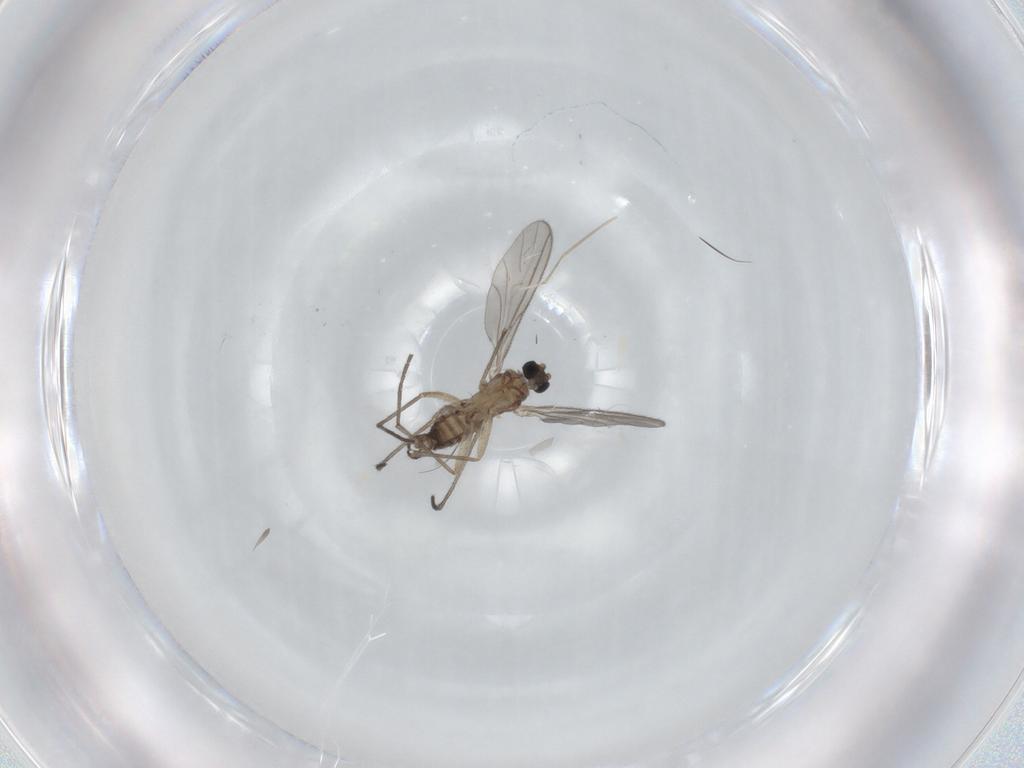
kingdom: Animalia
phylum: Arthropoda
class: Insecta
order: Diptera
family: Sciaridae
